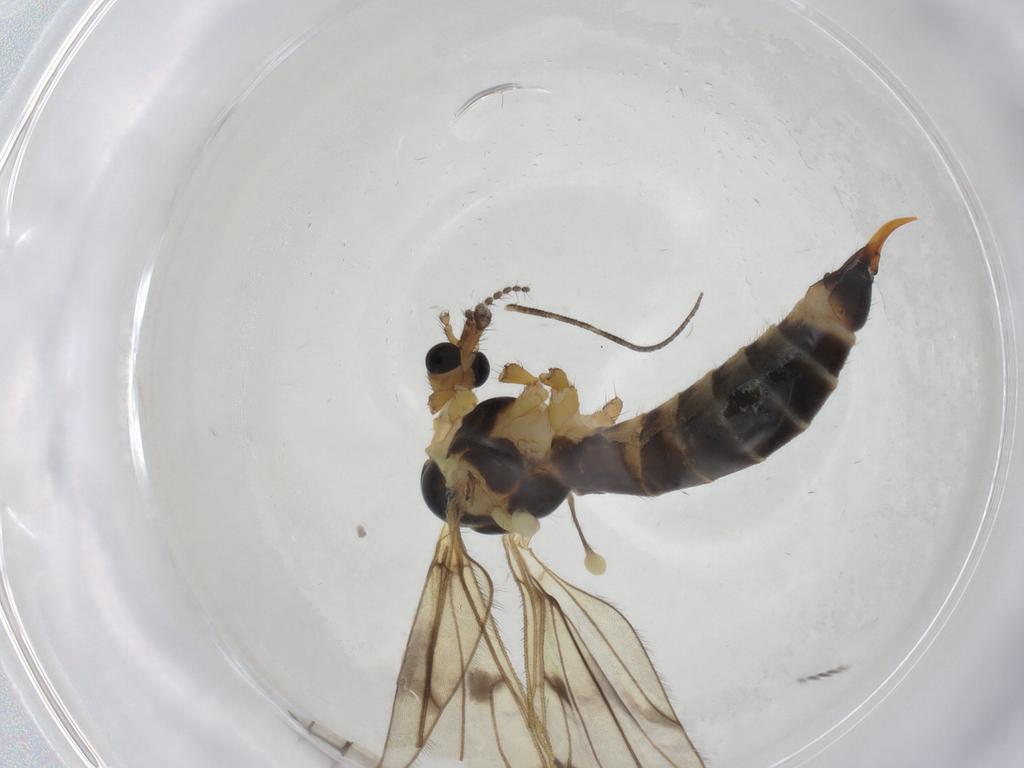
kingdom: Animalia
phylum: Arthropoda
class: Insecta
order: Diptera
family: Limoniidae
